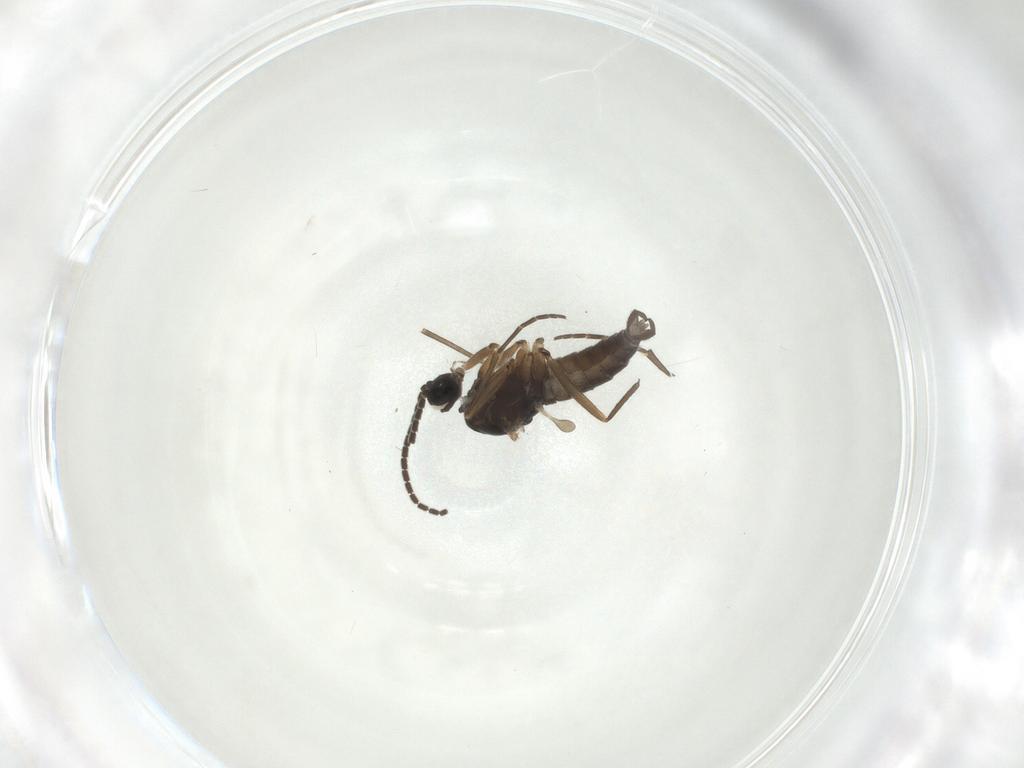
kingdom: Animalia
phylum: Arthropoda
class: Insecta
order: Diptera
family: Sciaridae
